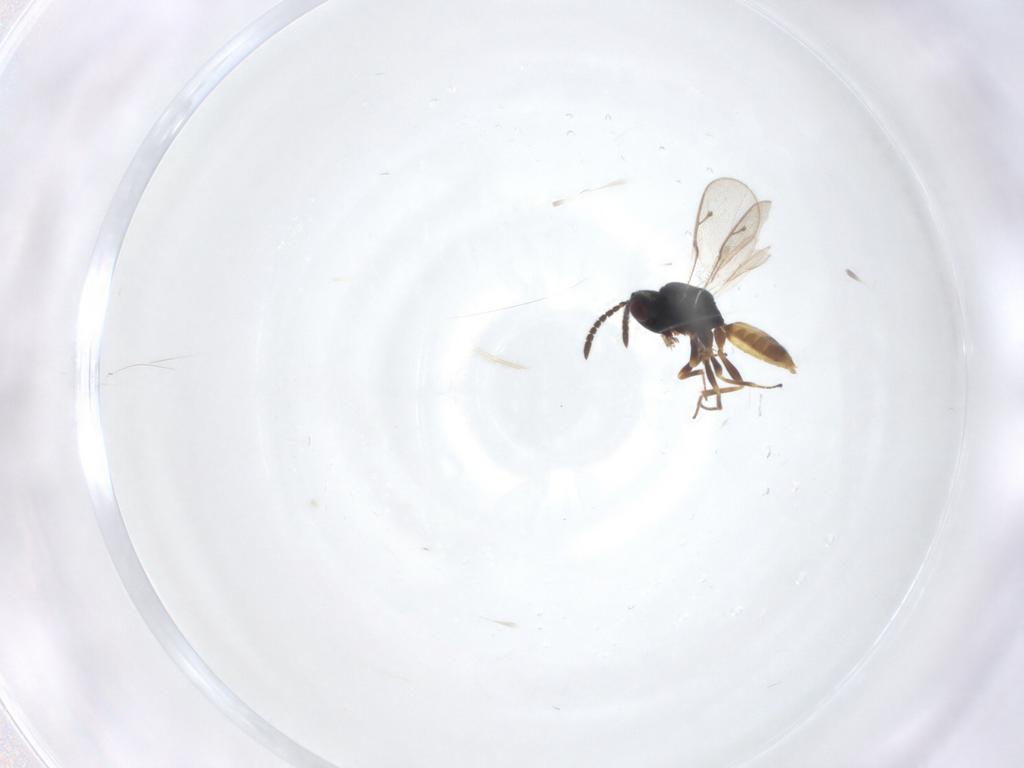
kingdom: Animalia
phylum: Arthropoda
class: Insecta
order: Hymenoptera
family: Pteromalidae
